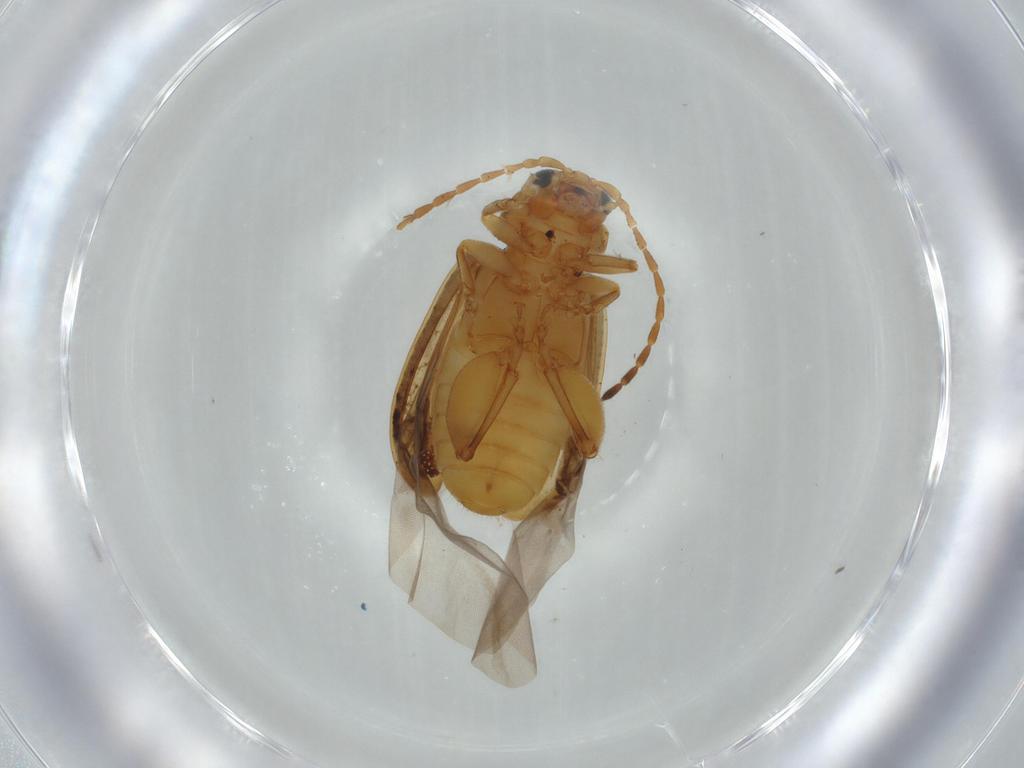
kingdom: Animalia
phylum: Arthropoda
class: Insecta
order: Coleoptera
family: Chrysomelidae
